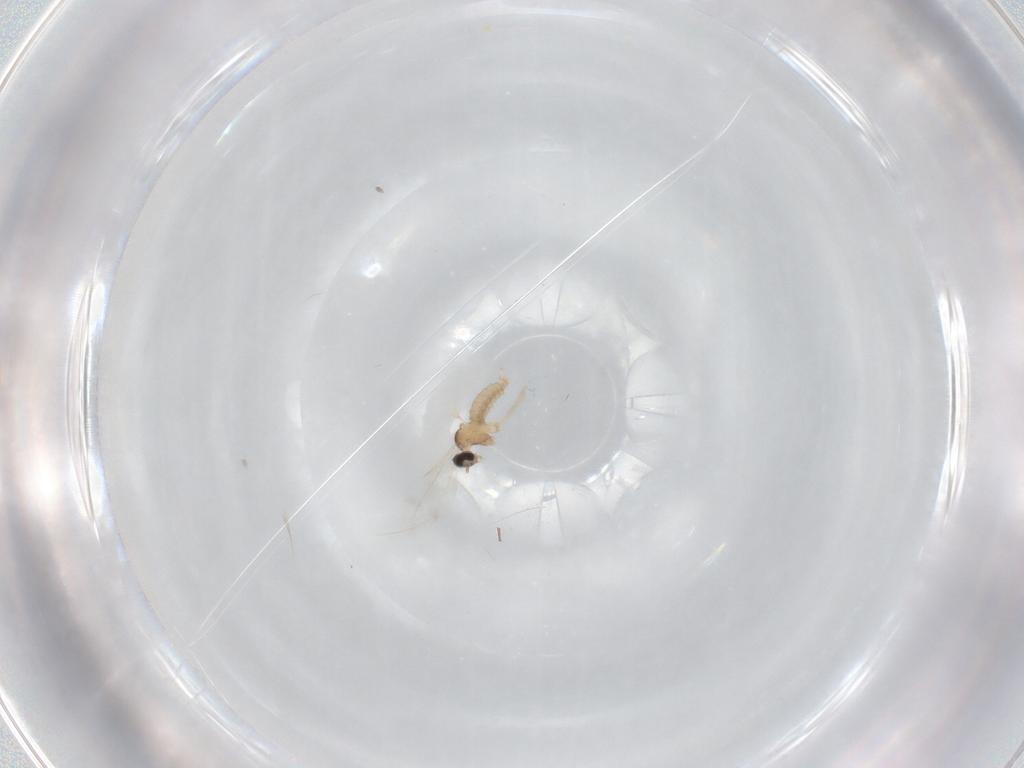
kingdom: Animalia
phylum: Arthropoda
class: Insecta
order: Diptera
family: Cecidomyiidae
